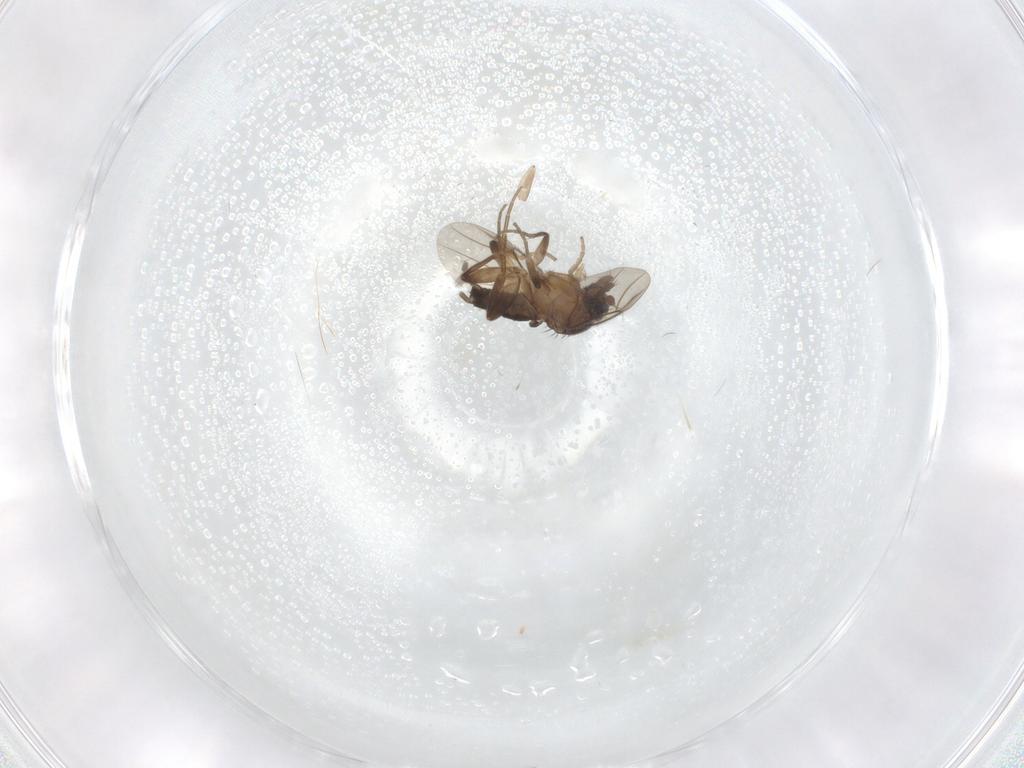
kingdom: Animalia
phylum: Arthropoda
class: Insecta
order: Diptera
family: Phoridae
